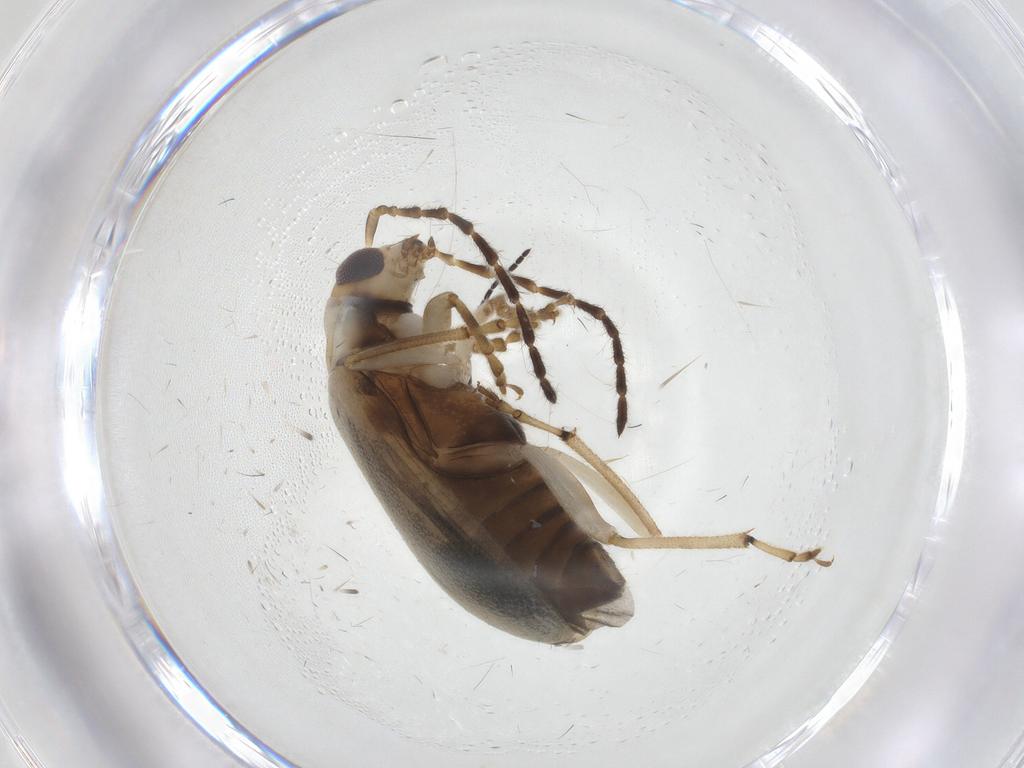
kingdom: Animalia
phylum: Arthropoda
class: Insecta
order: Coleoptera
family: Chrysomelidae
